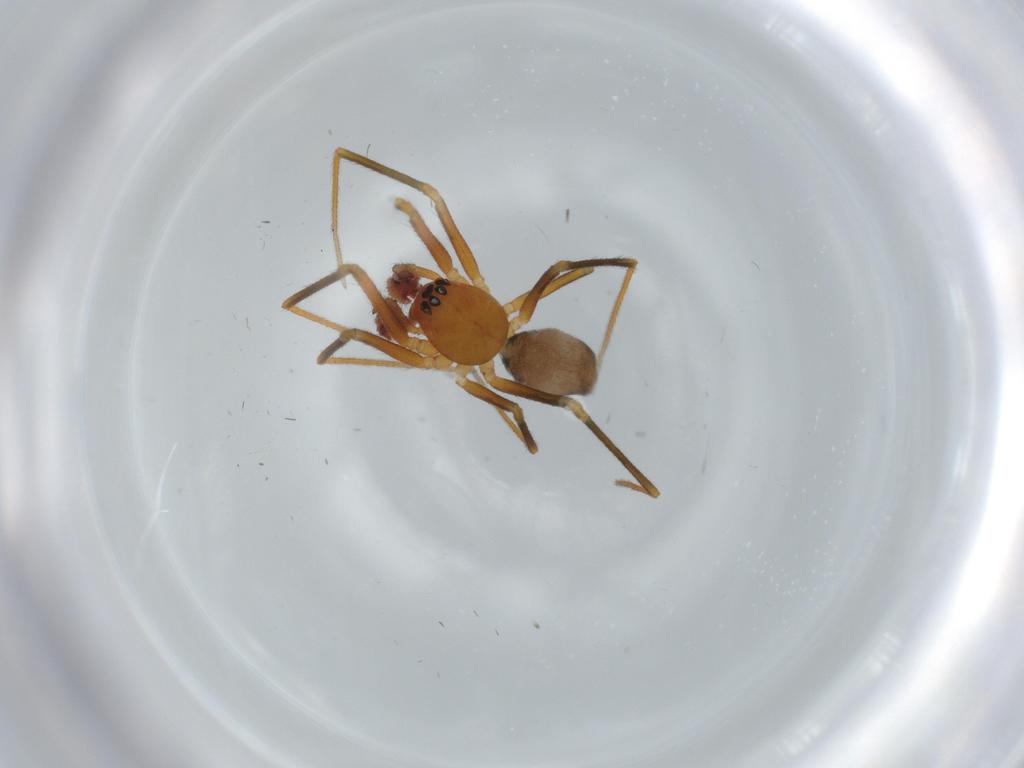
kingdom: Animalia
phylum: Arthropoda
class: Arachnida
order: Araneae
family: Linyphiidae
